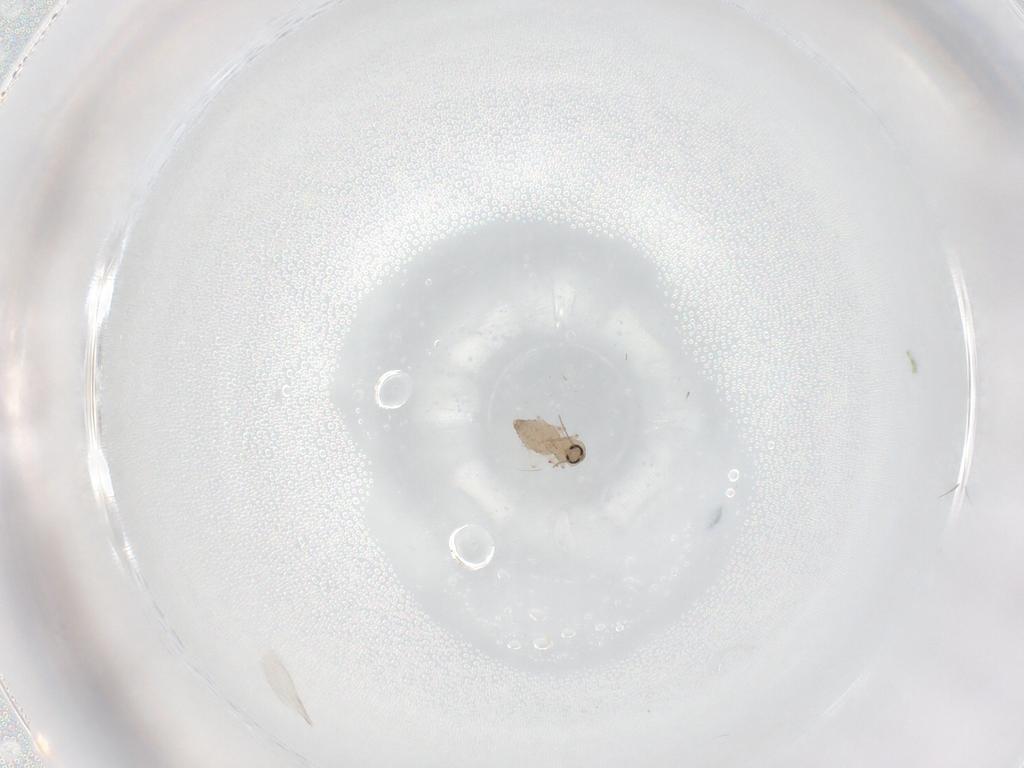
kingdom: Animalia
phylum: Arthropoda
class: Insecta
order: Diptera
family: Ceratopogonidae
